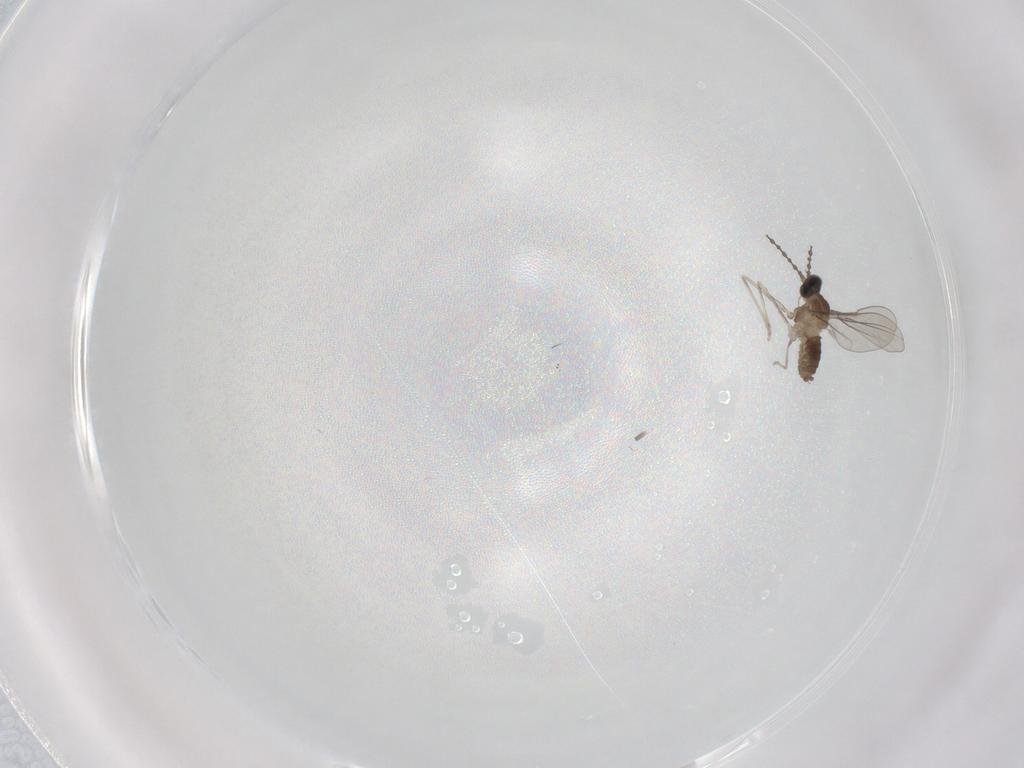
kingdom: Animalia
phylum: Arthropoda
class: Insecta
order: Diptera
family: Cecidomyiidae
